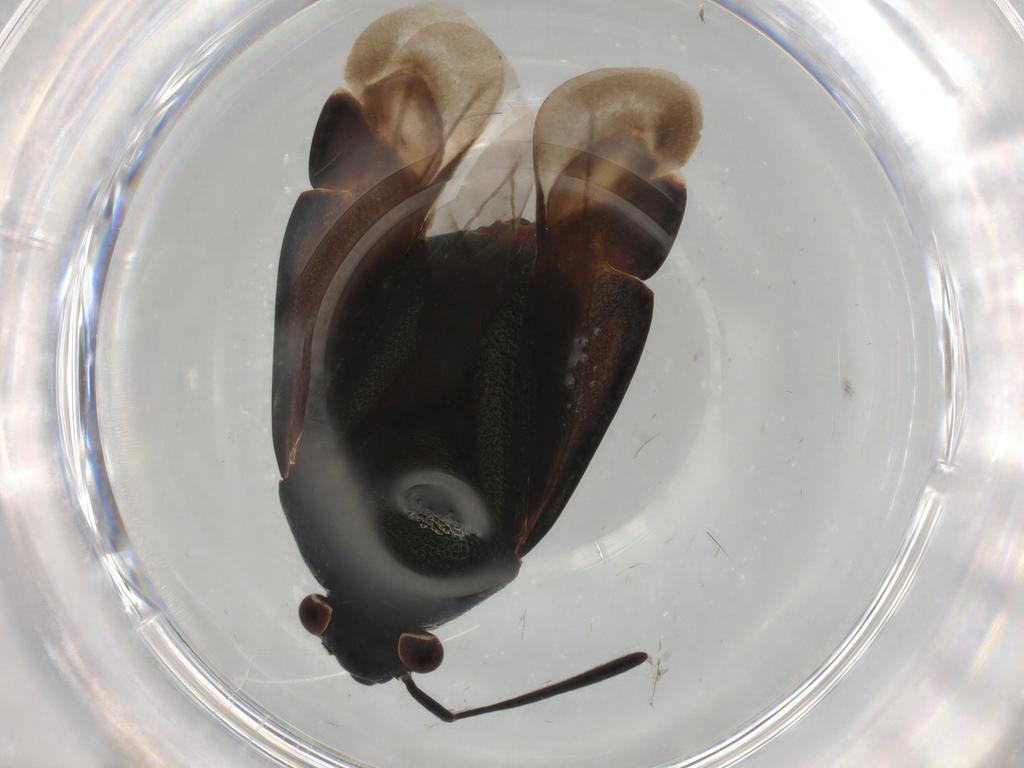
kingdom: Animalia
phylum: Arthropoda
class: Insecta
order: Hemiptera
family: Miridae
